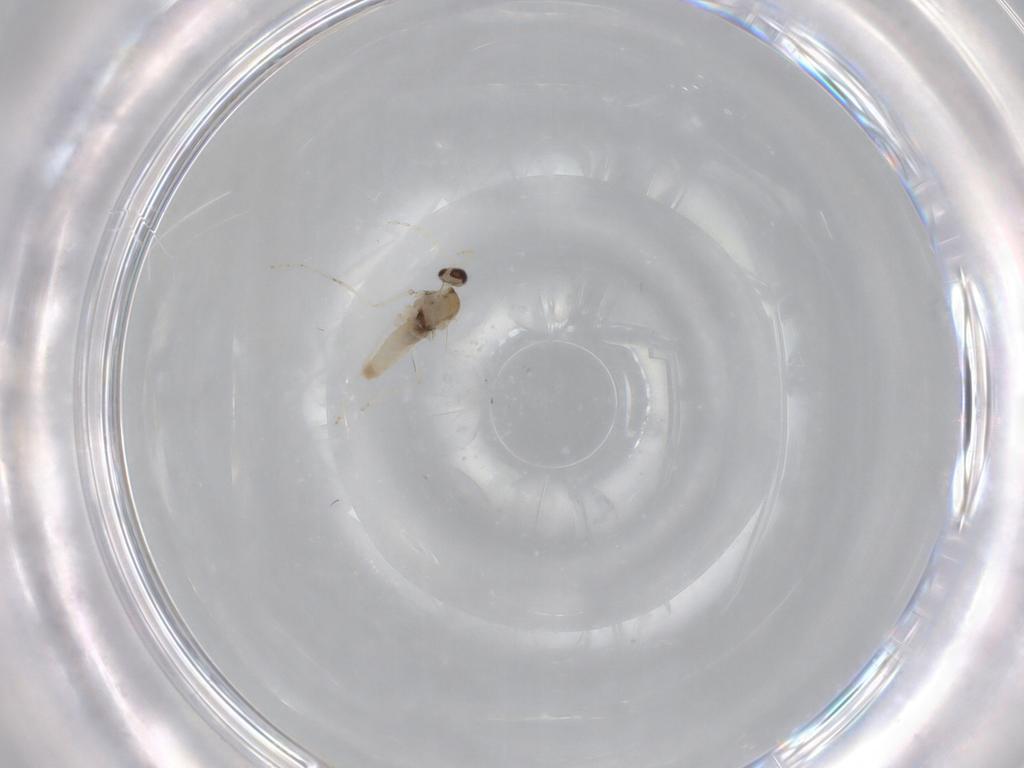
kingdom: Animalia
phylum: Arthropoda
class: Insecta
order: Diptera
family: Cecidomyiidae
